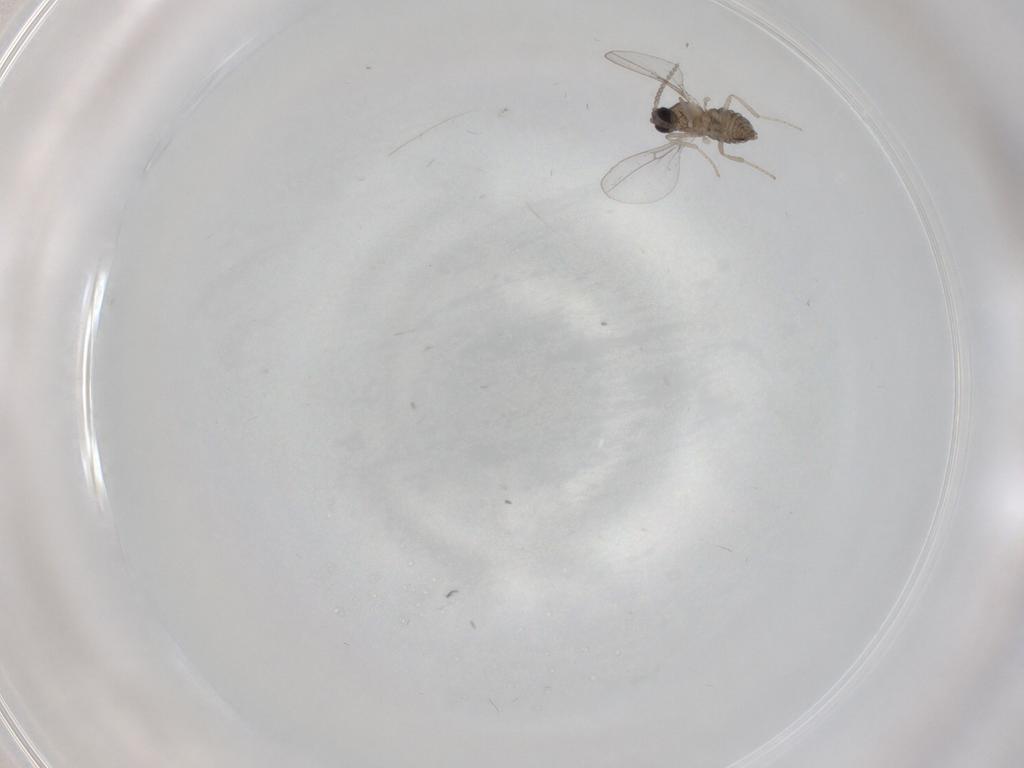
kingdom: Animalia
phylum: Arthropoda
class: Insecta
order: Diptera
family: Cecidomyiidae
